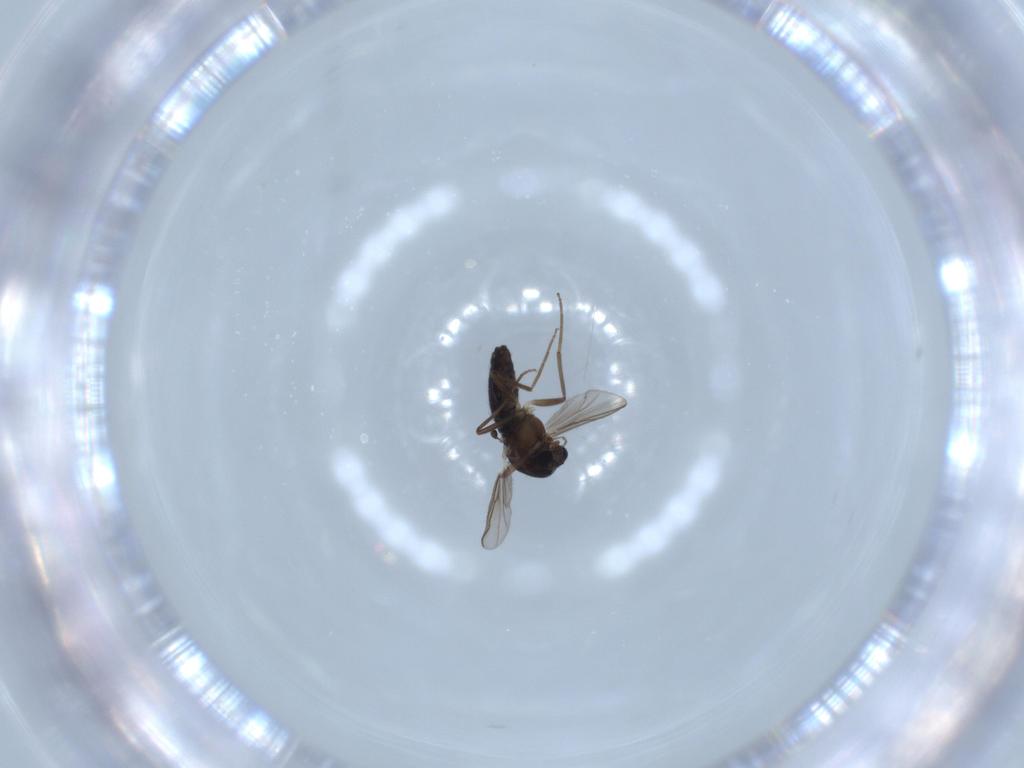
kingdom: Animalia
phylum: Arthropoda
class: Insecta
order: Diptera
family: Chironomidae
